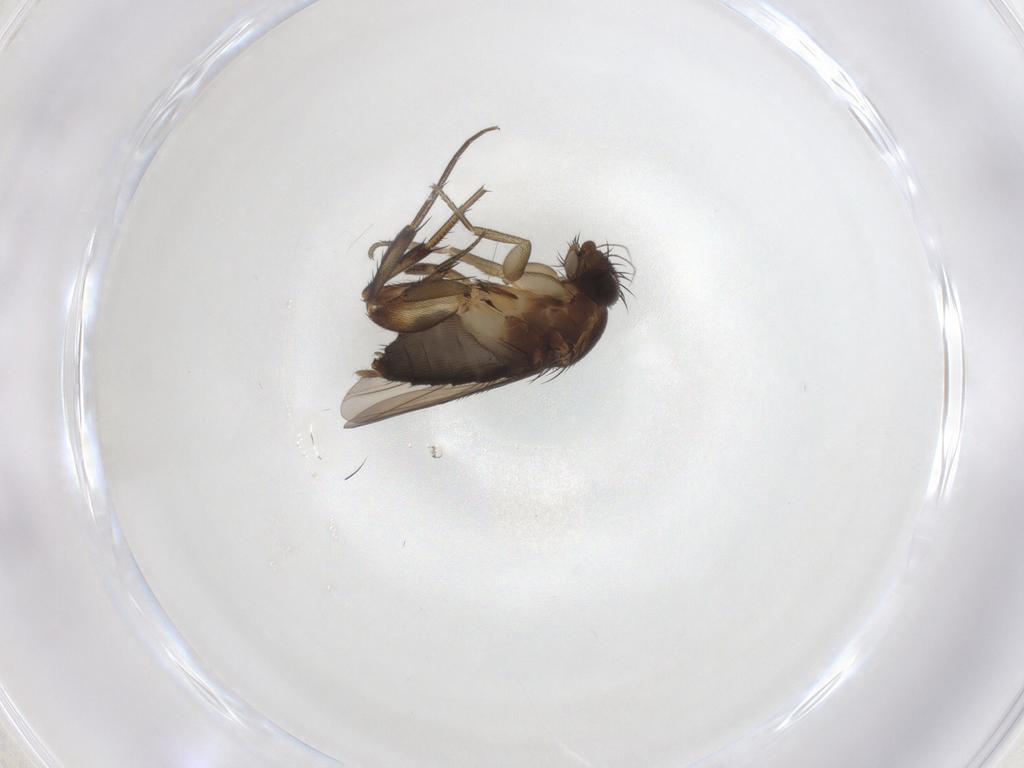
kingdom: Animalia
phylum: Arthropoda
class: Insecta
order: Diptera
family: Phoridae
